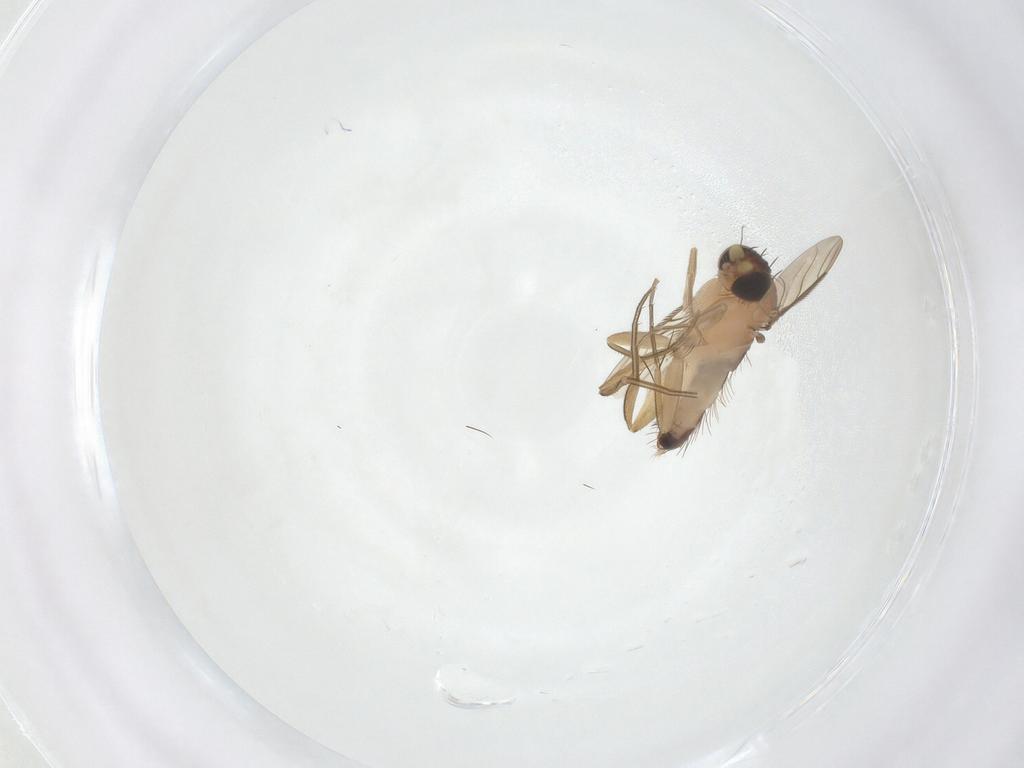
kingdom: Animalia
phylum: Arthropoda
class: Insecta
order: Diptera
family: Phoridae
